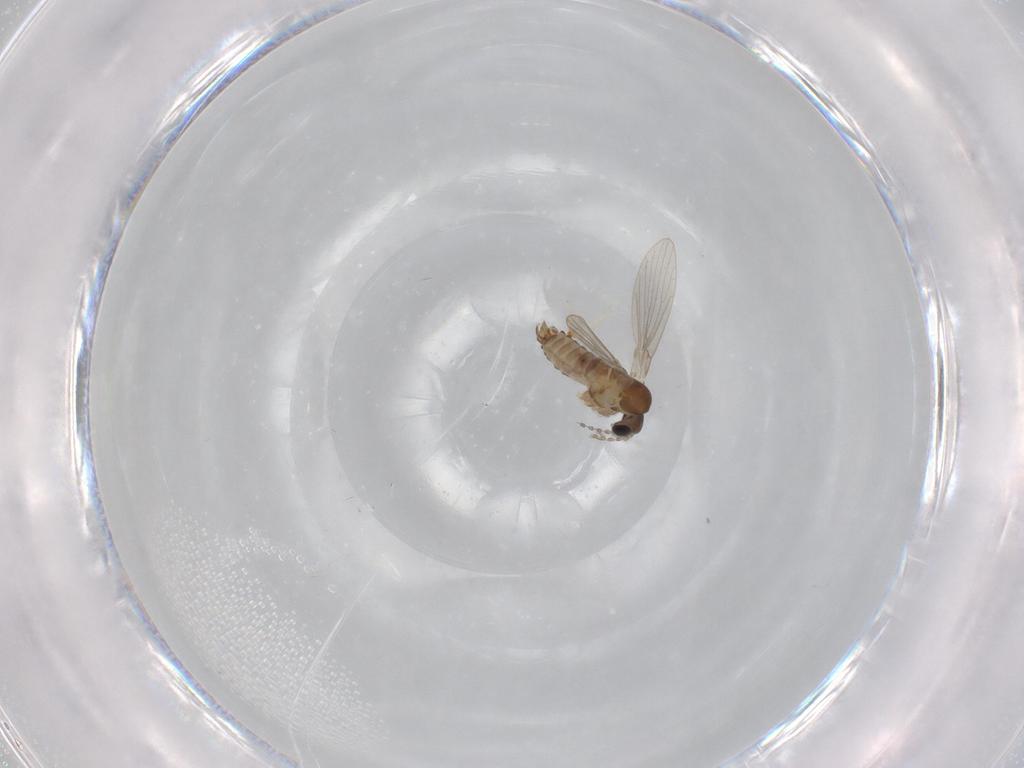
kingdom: Animalia
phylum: Arthropoda
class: Insecta
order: Diptera
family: Psychodidae
